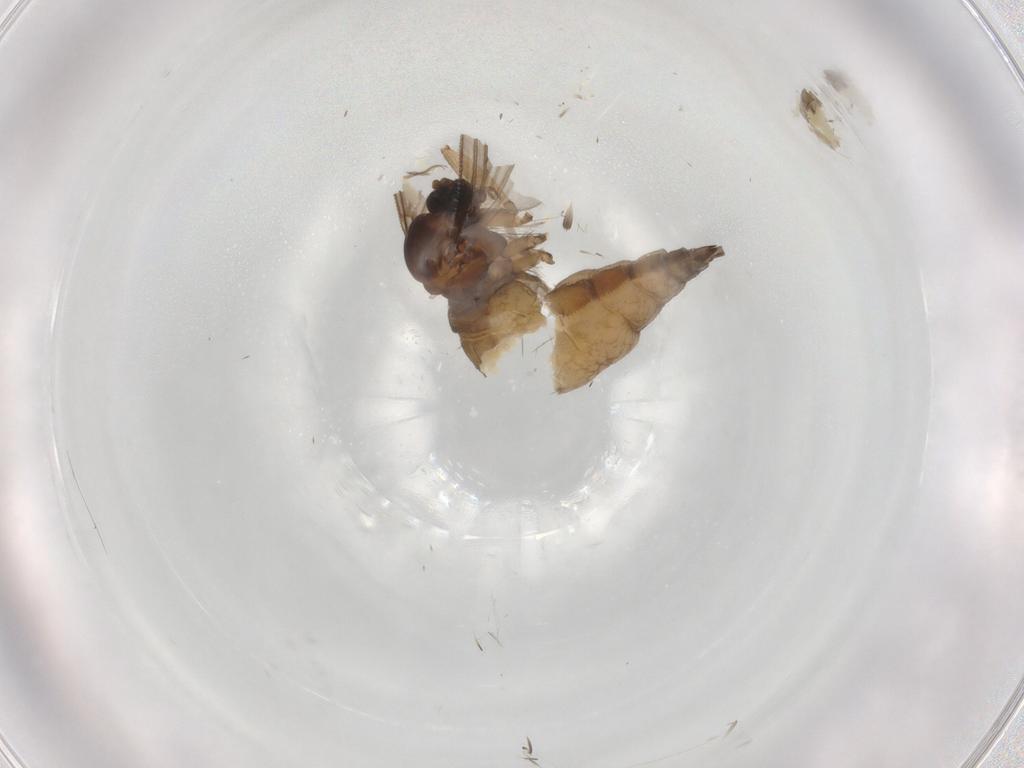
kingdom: Animalia
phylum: Arthropoda
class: Insecta
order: Diptera
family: Sciaridae
